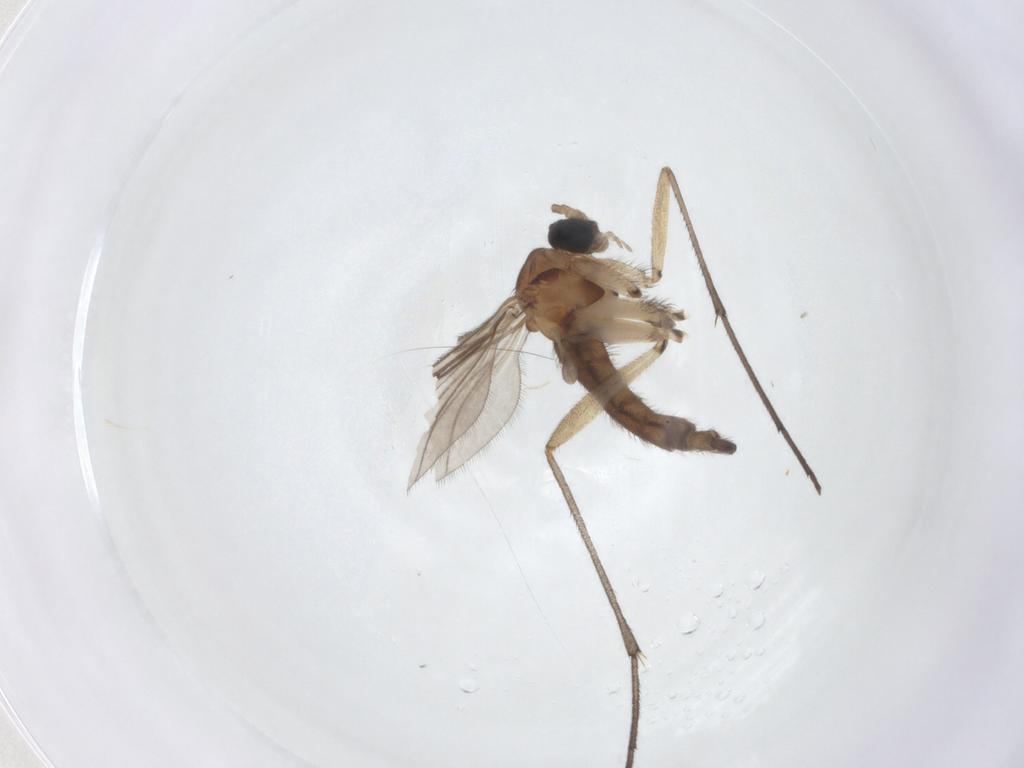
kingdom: Animalia
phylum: Arthropoda
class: Insecta
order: Diptera
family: Sciaridae
